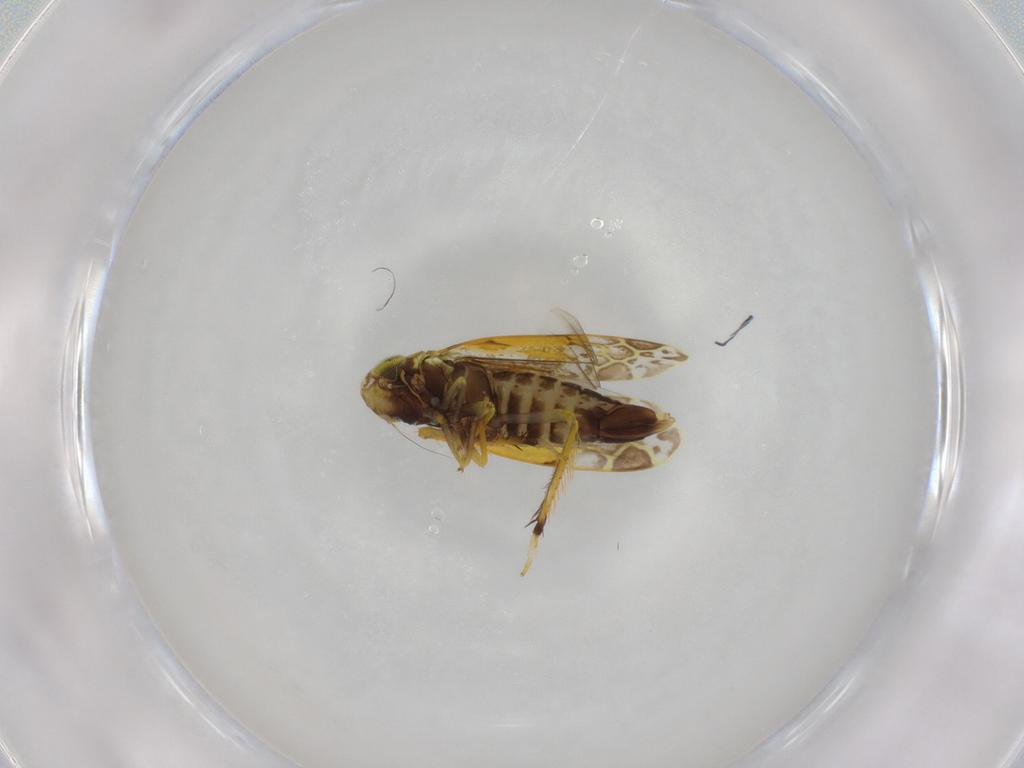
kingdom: Animalia
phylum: Arthropoda
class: Insecta
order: Hemiptera
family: Cicadellidae
